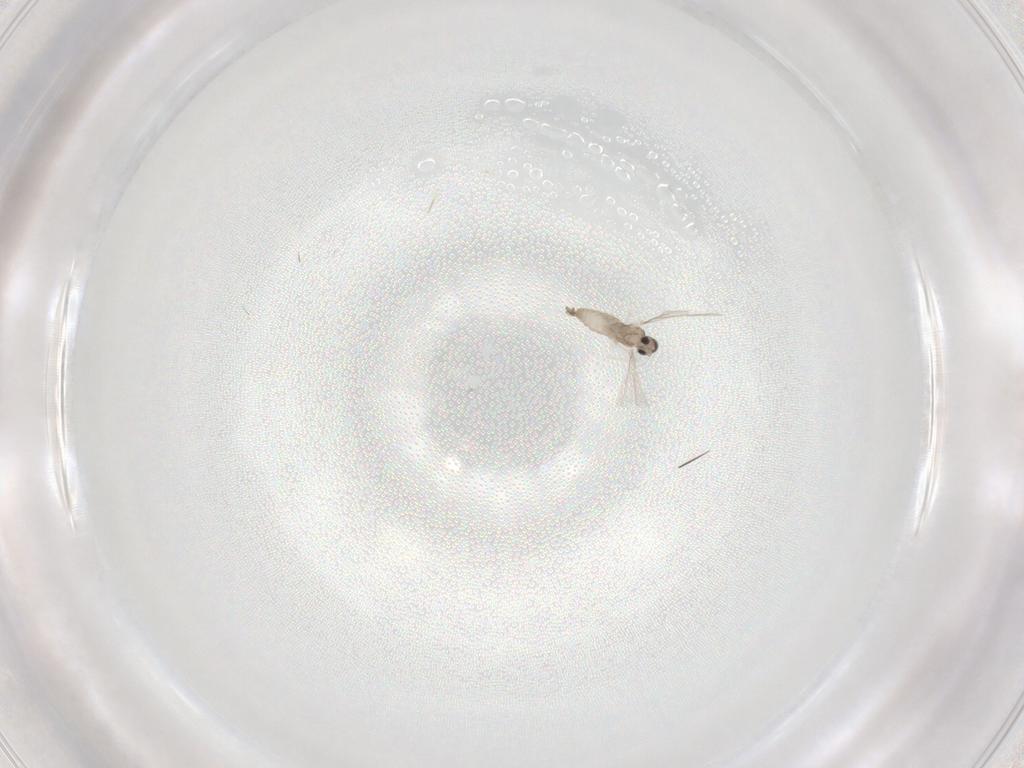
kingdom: Animalia
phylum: Arthropoda
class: Insecta
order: Diptera
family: Cecidomyiidae
